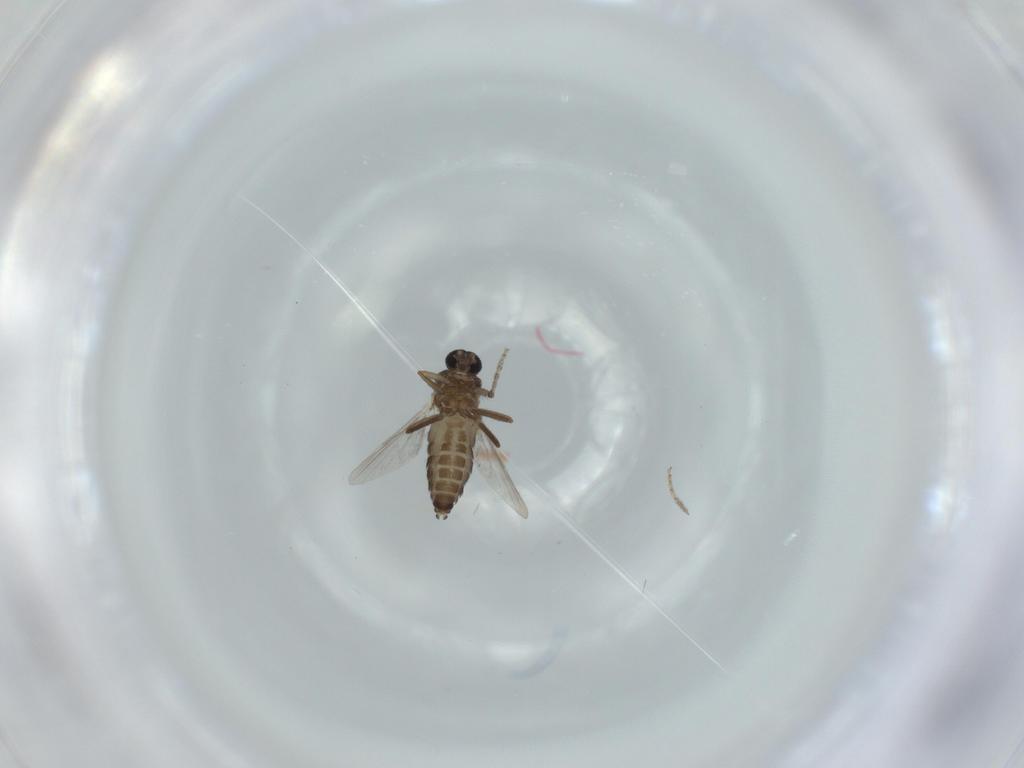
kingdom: Animalia
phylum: Arthropoda
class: Insecta
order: Diptera
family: Ceratopogonidae
